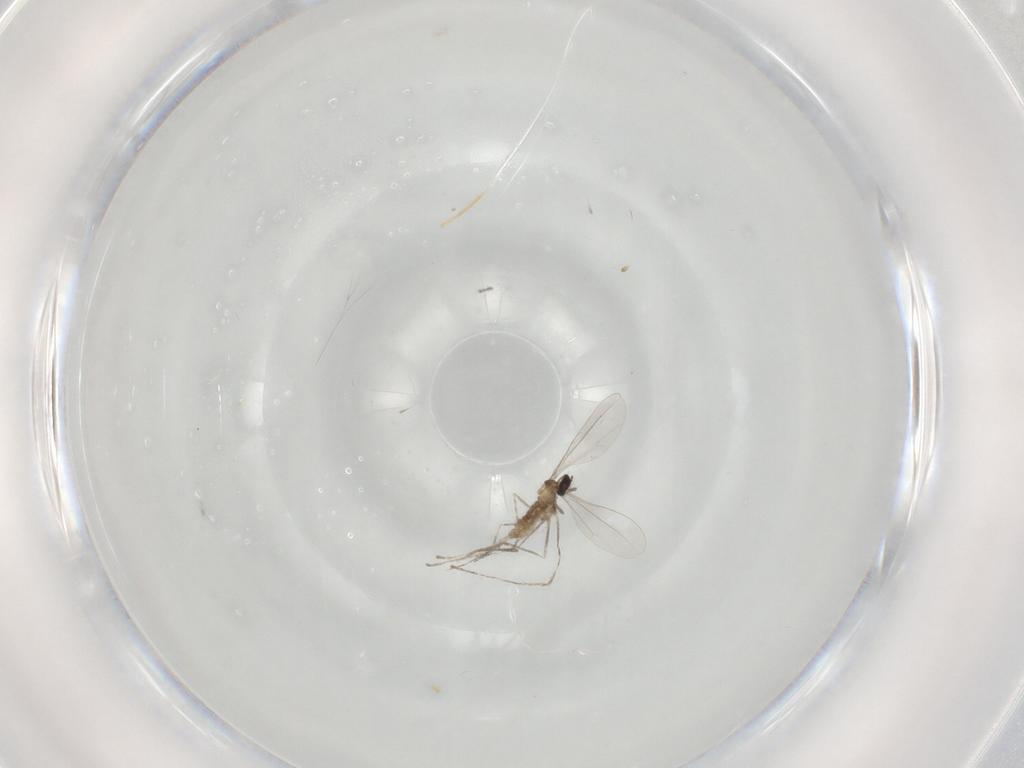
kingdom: Animalia
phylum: Arthropoda
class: Insecta
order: Diptera
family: Cecidomyiidae
